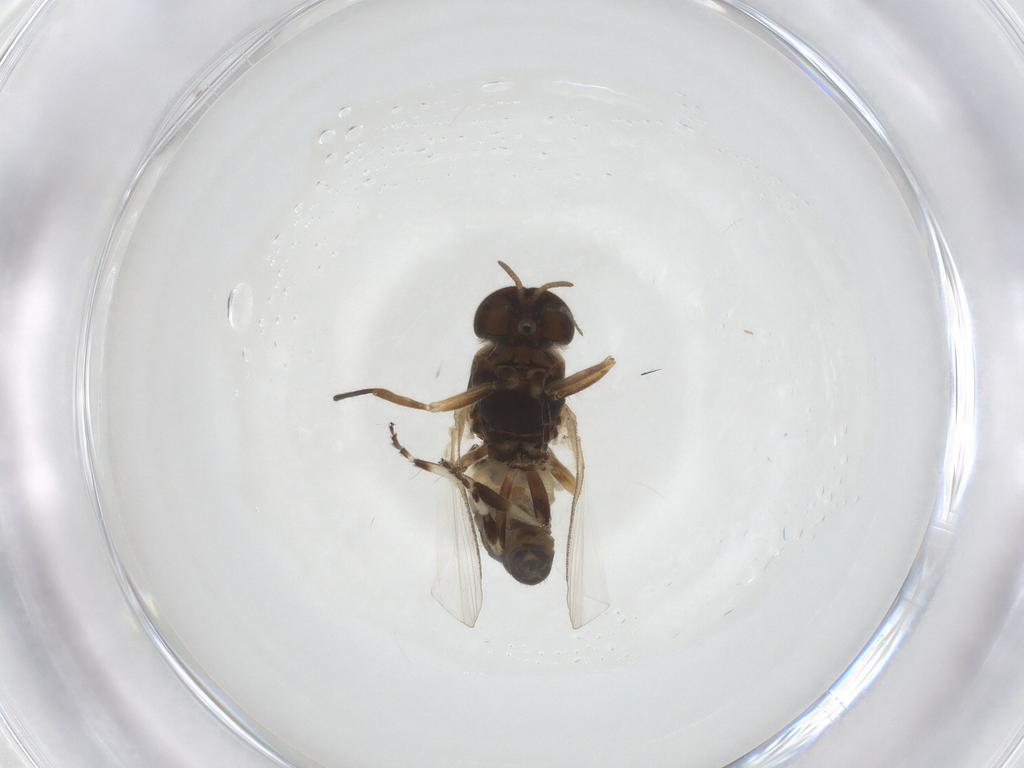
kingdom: Animalia
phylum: Arthropoda
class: Insecta
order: Diptera
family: Simuliidae
